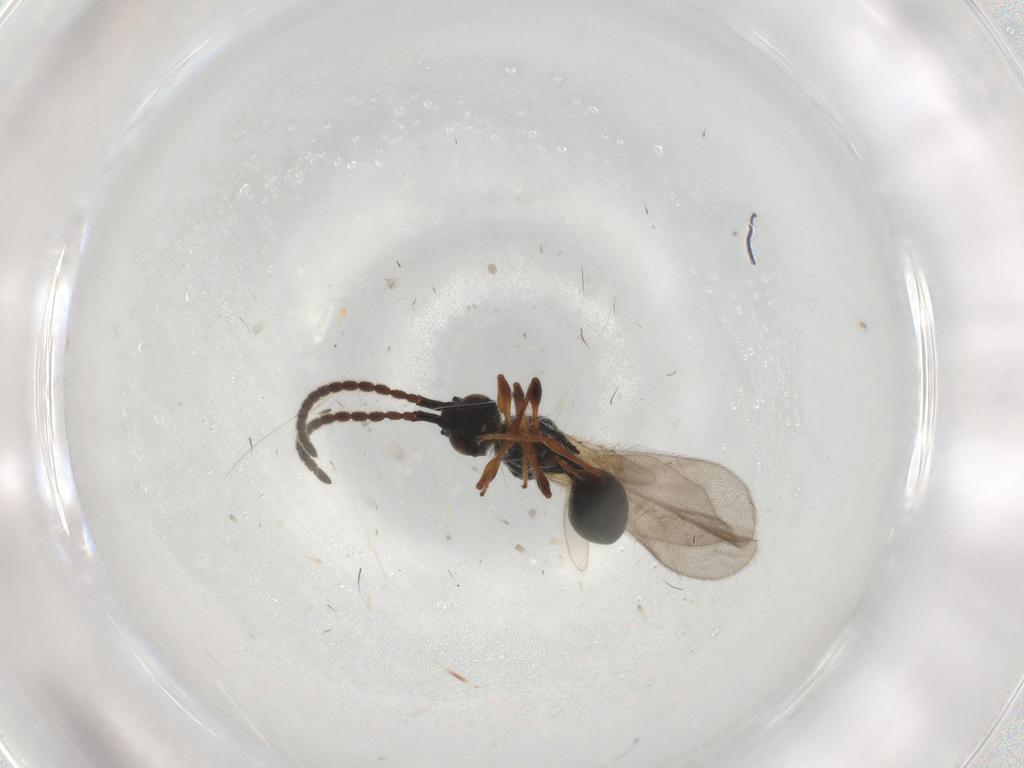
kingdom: Animalia
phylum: Arthropoda
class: Insecta
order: Hymenoptera
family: Diapriidae
